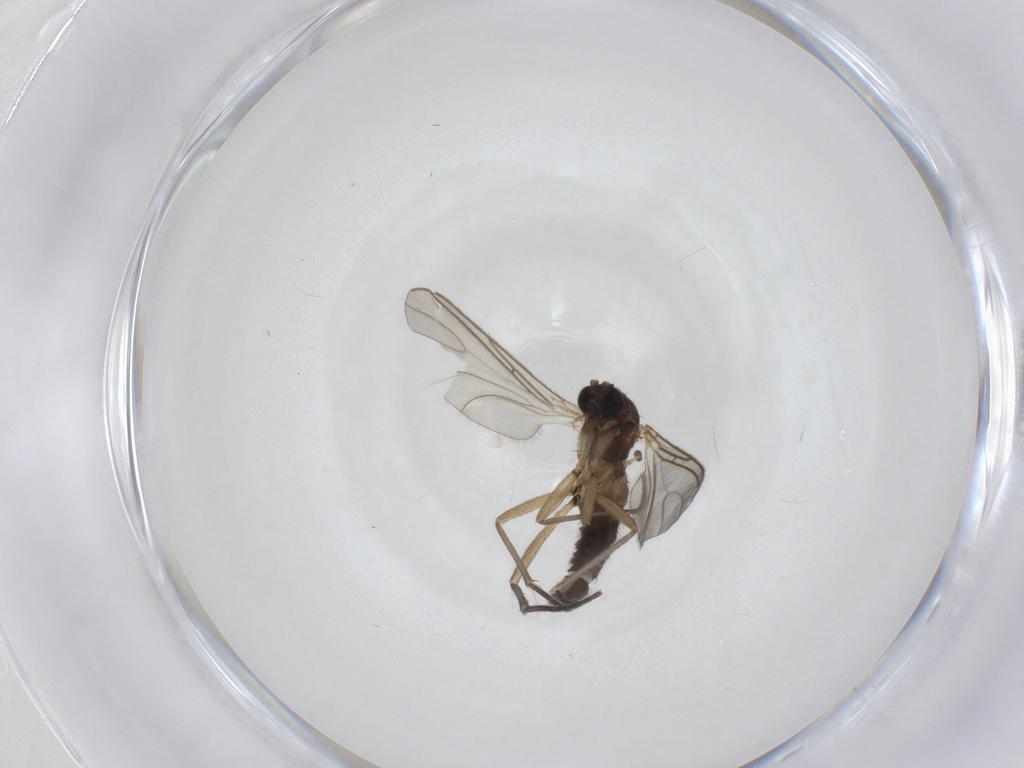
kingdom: Animalia
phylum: Arthropoda
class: Insecta
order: Diptera
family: Sciaridae
